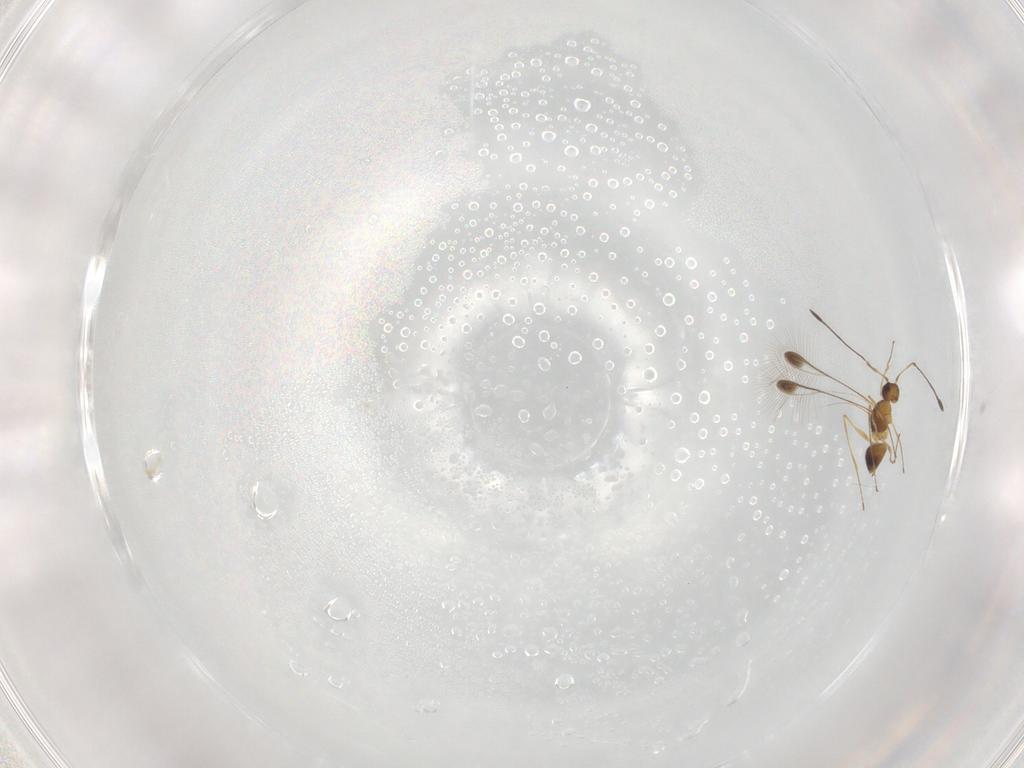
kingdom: Animalia
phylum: Arthropoda
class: Insecta
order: Hymenoptera
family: Mymaridae
